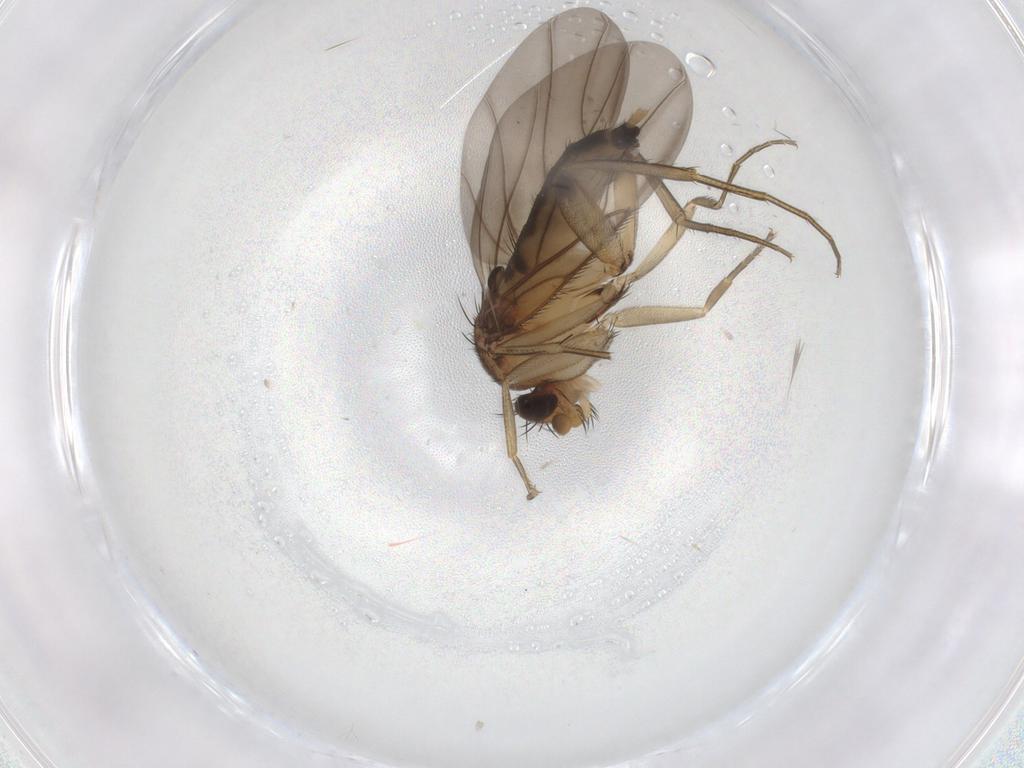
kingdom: Animalia
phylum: Arthropoda
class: Insecta
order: Diptera
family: Phoridae
